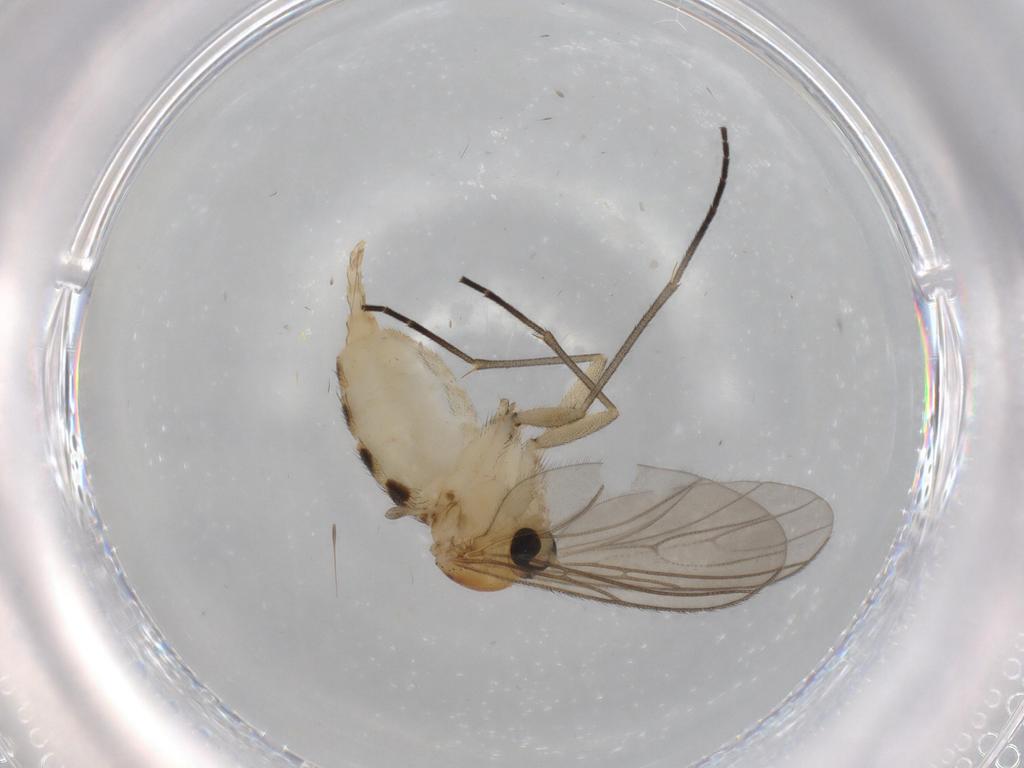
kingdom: Animalia
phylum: Arthropoda
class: Insecta
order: Diptera
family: Sciaridae
